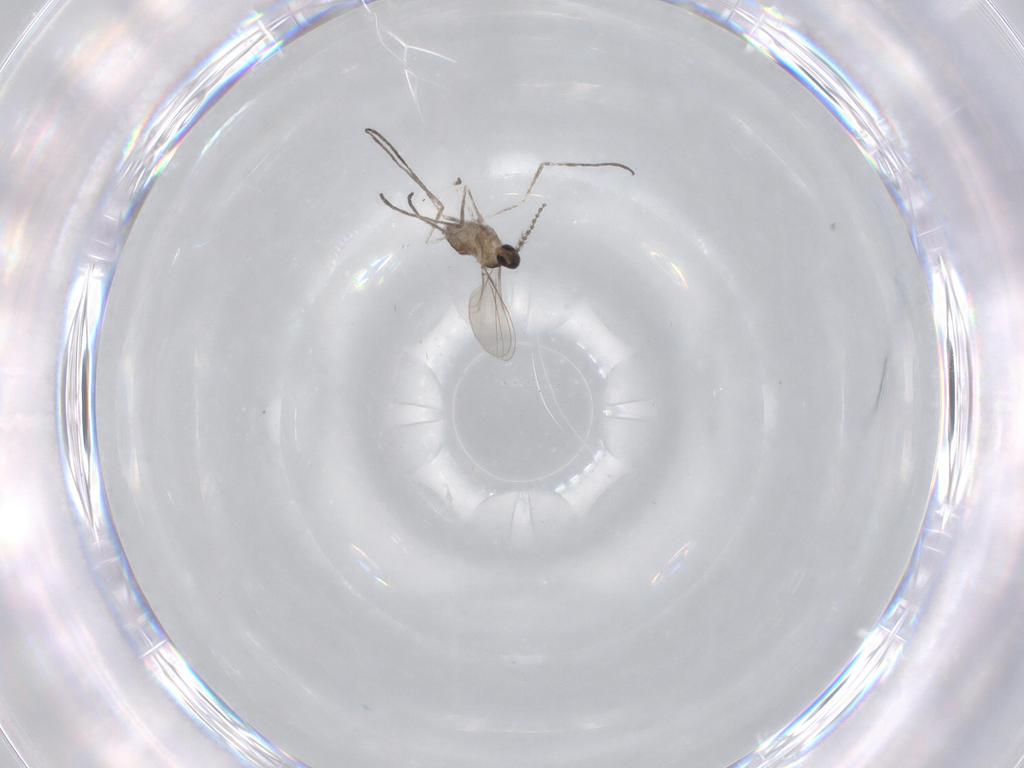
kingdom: Animalia
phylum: Arthropoda
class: Insecta
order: Diptera
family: Cecidomyiidae
